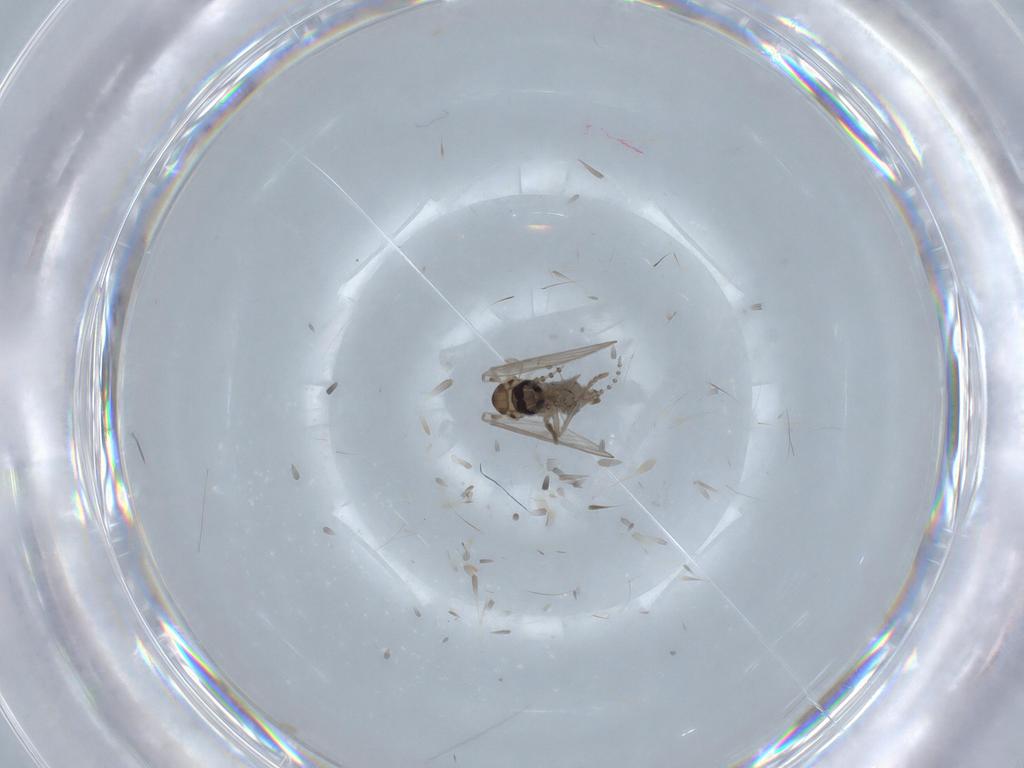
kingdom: Animalia
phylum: Arthropoda
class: Insecta
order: Diptera
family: Psychodidae
